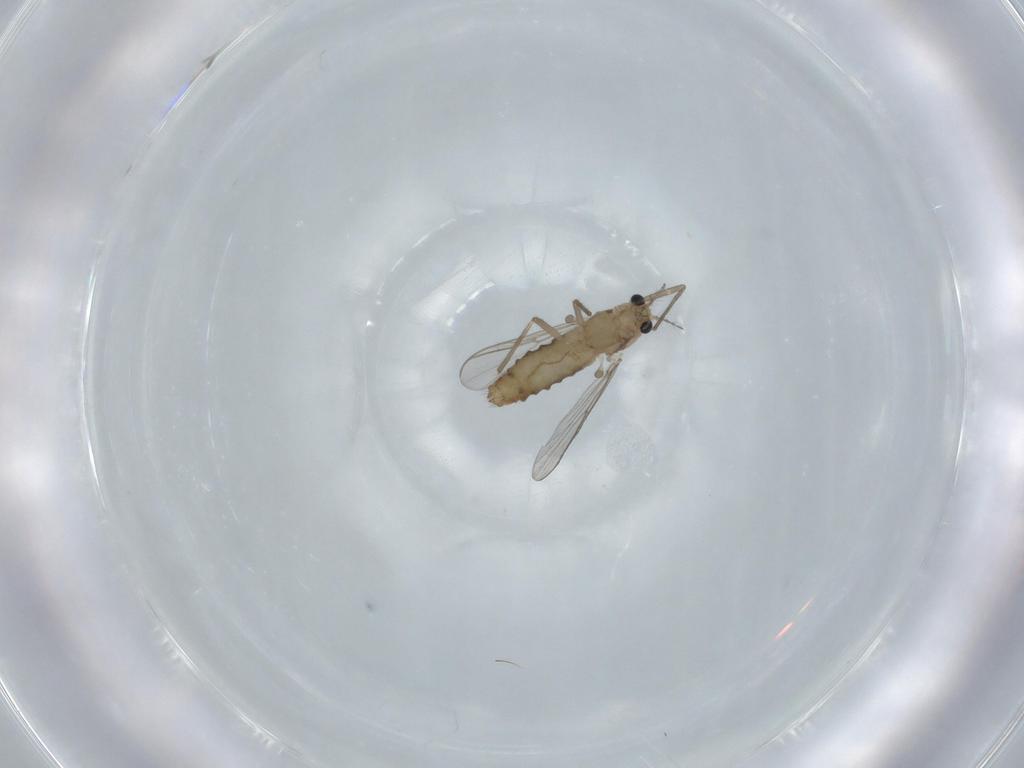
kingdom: Animalia
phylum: Arthropoda
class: Insecta
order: Diptera
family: Chironomidae
